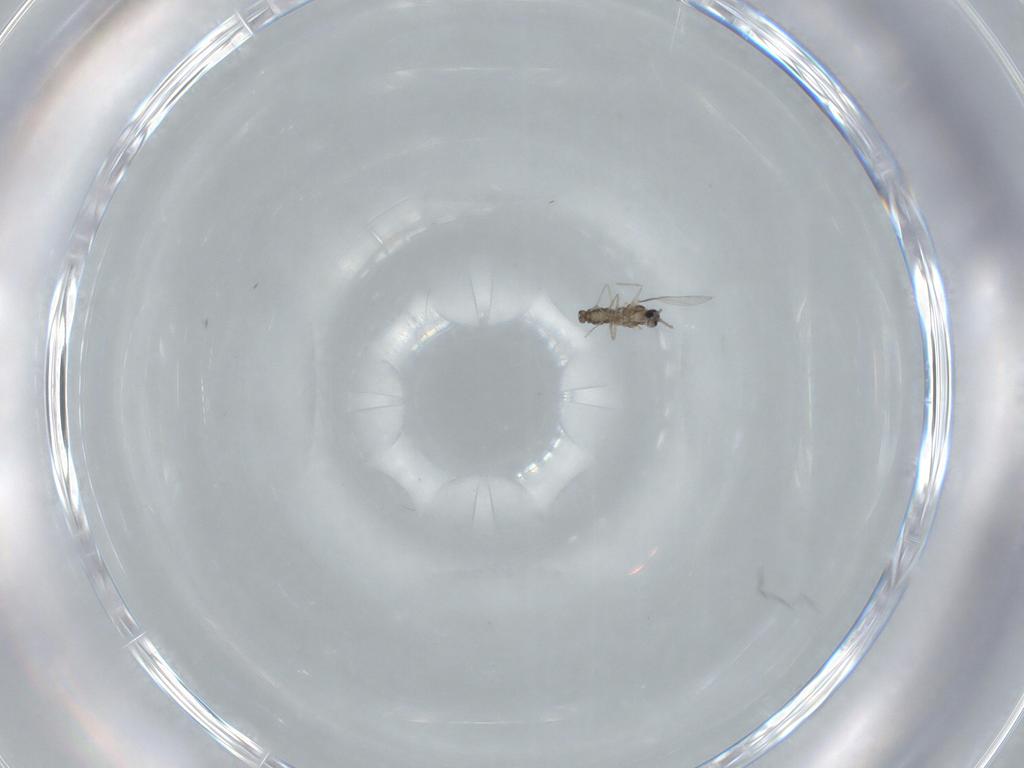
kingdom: Animalia
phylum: Arthropoda
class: Insecta
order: Diptera
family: Cecidomyiidae
